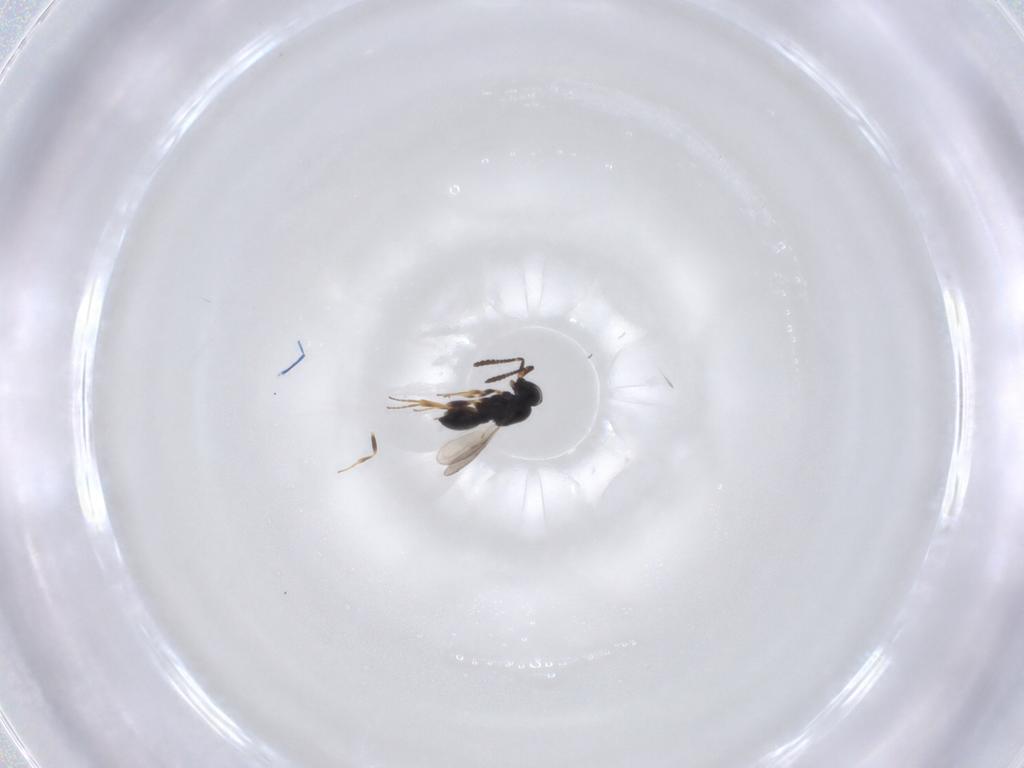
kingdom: Animalia
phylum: Arthropoda
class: Insecta
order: Hymenoptera
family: Scelionidae
